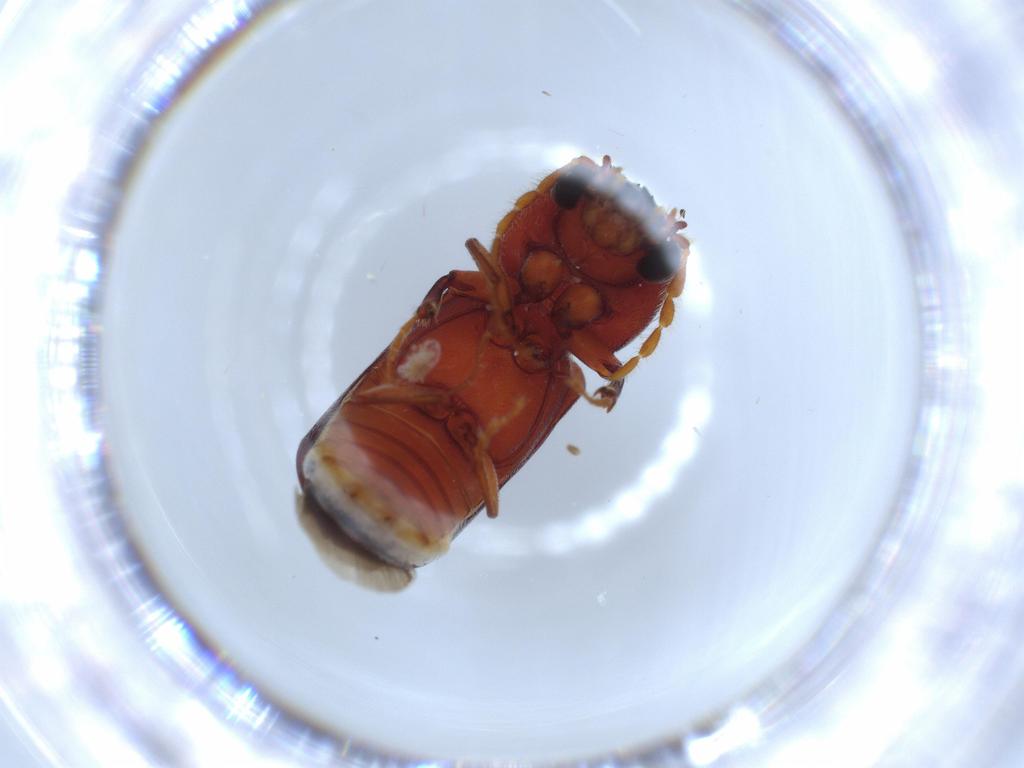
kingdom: Animalia
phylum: Arthropoda
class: Insecta
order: Coleoptera
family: Bostrichidae
